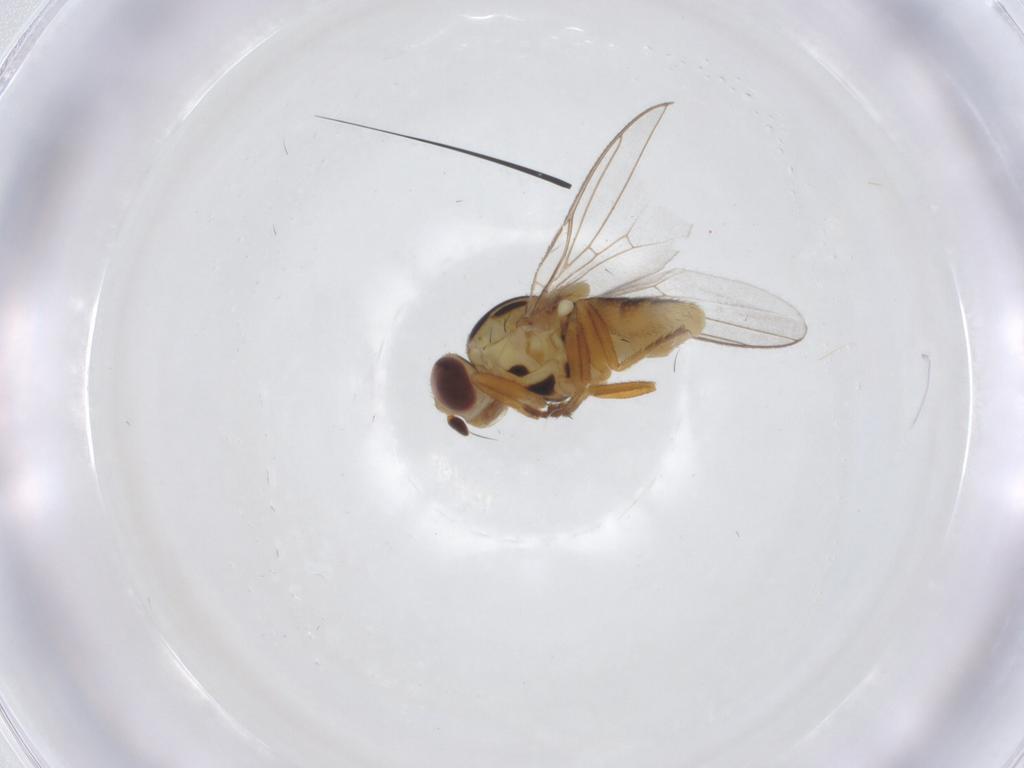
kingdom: Animalia
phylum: Arthropoda
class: Insecta
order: Diptera
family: Chloropidae
